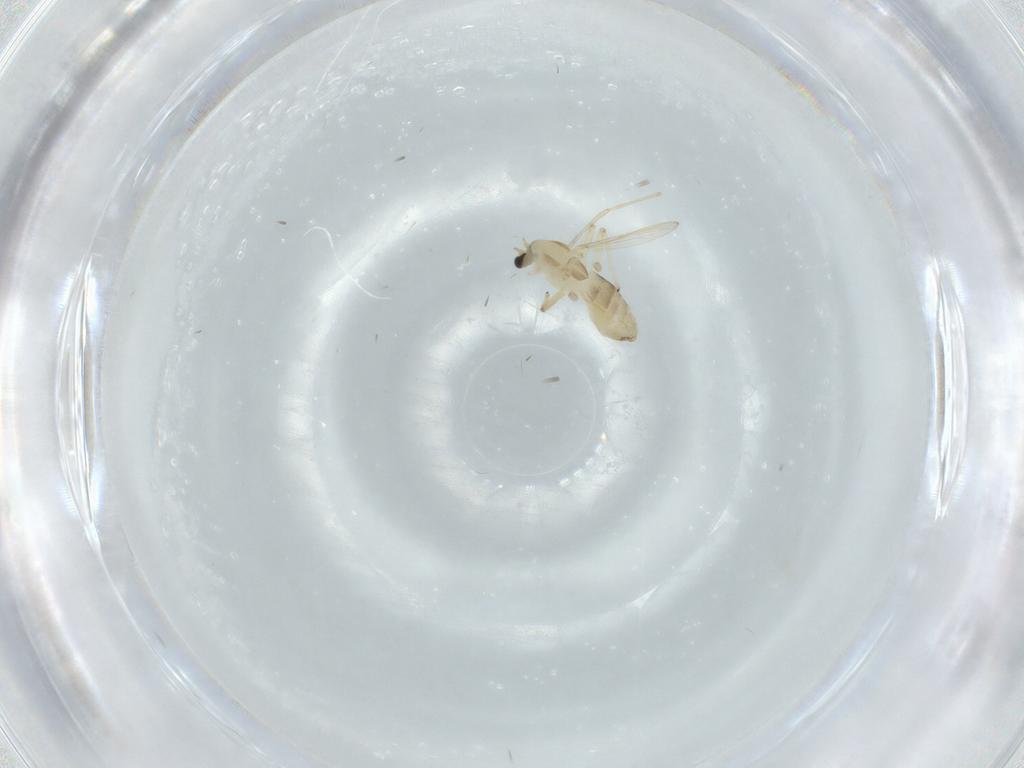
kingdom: Animalia
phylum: Arthropoda
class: Insecta
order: Diptera
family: Chironomidae
